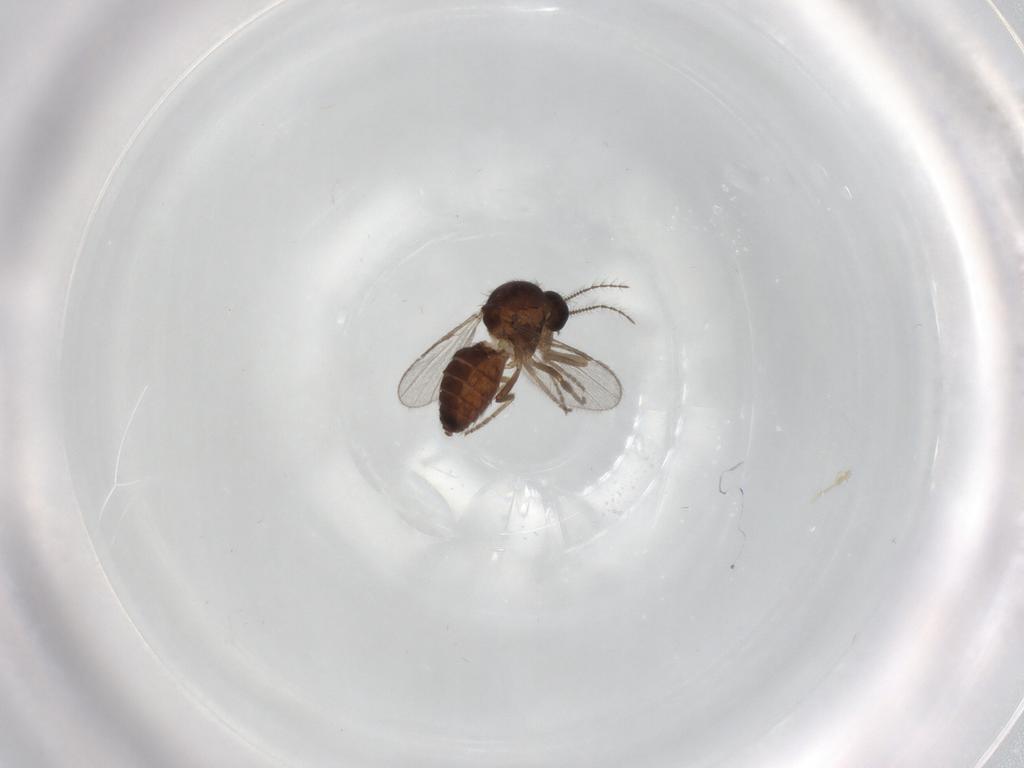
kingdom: Animalia
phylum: Arthropoda
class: Insecta
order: Diptera
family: Ceratopogonidae
